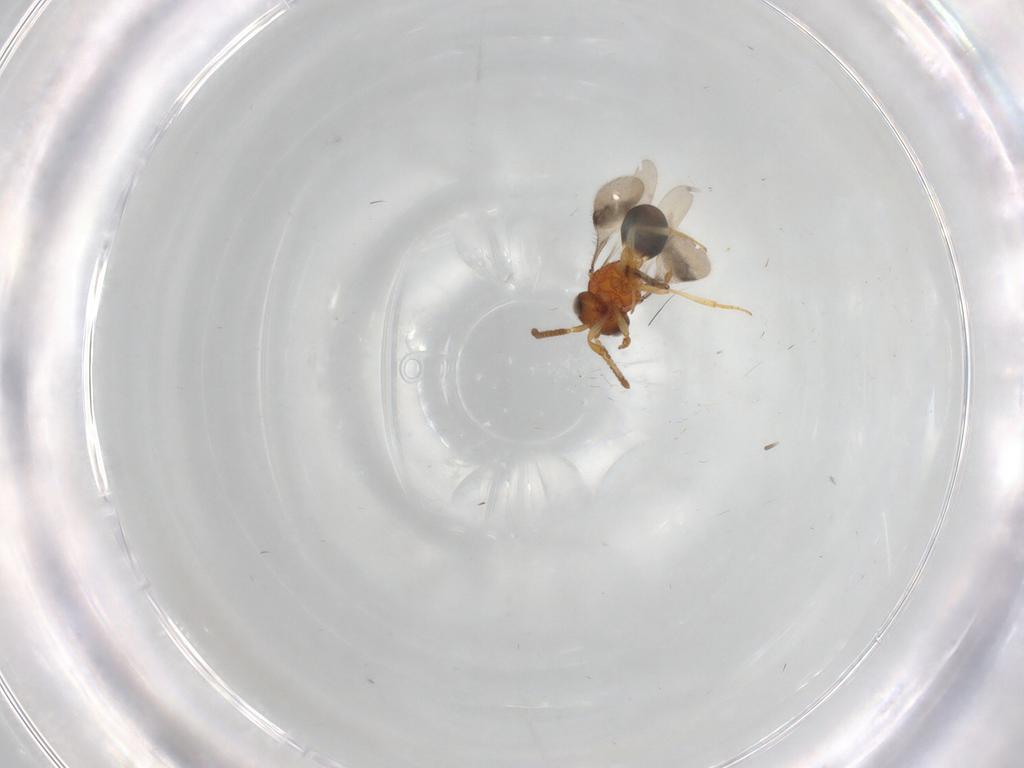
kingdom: Animalia
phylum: Arthropoda
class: Insecta
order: Hymenoptera
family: Scelionidae
